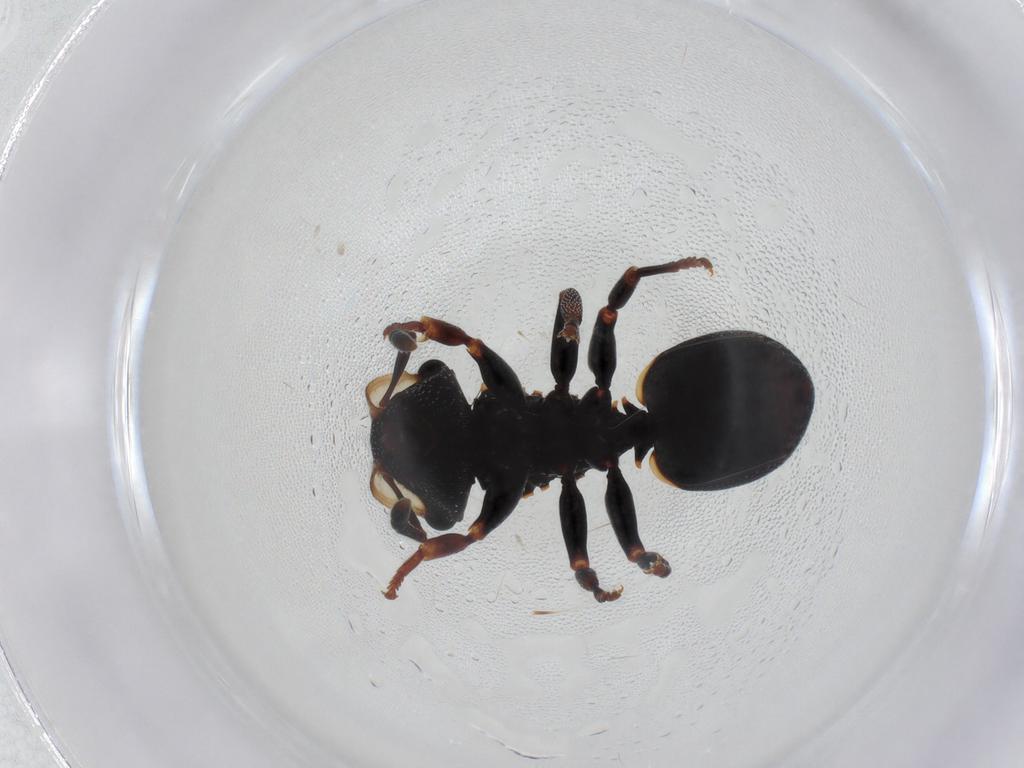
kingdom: Animalia
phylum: Arthropoda
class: Insecta
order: Hymenoptera
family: Formicidae
